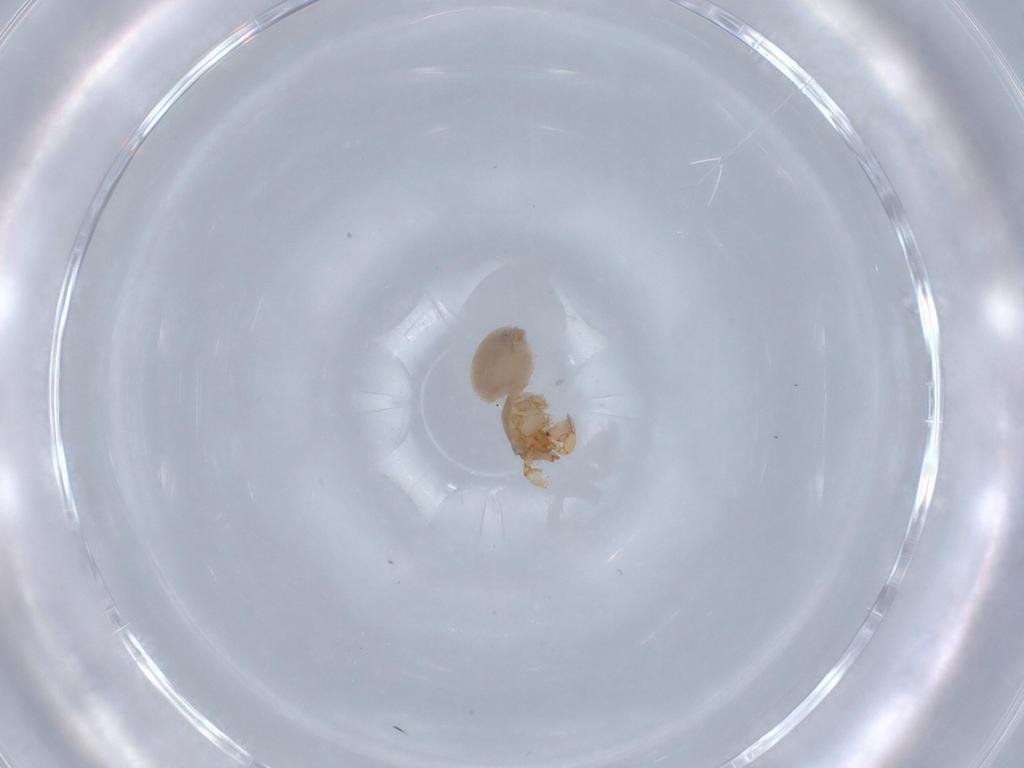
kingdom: Animalia
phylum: Arthropoda
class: Arachnida
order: Araneae
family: Oonopidae
